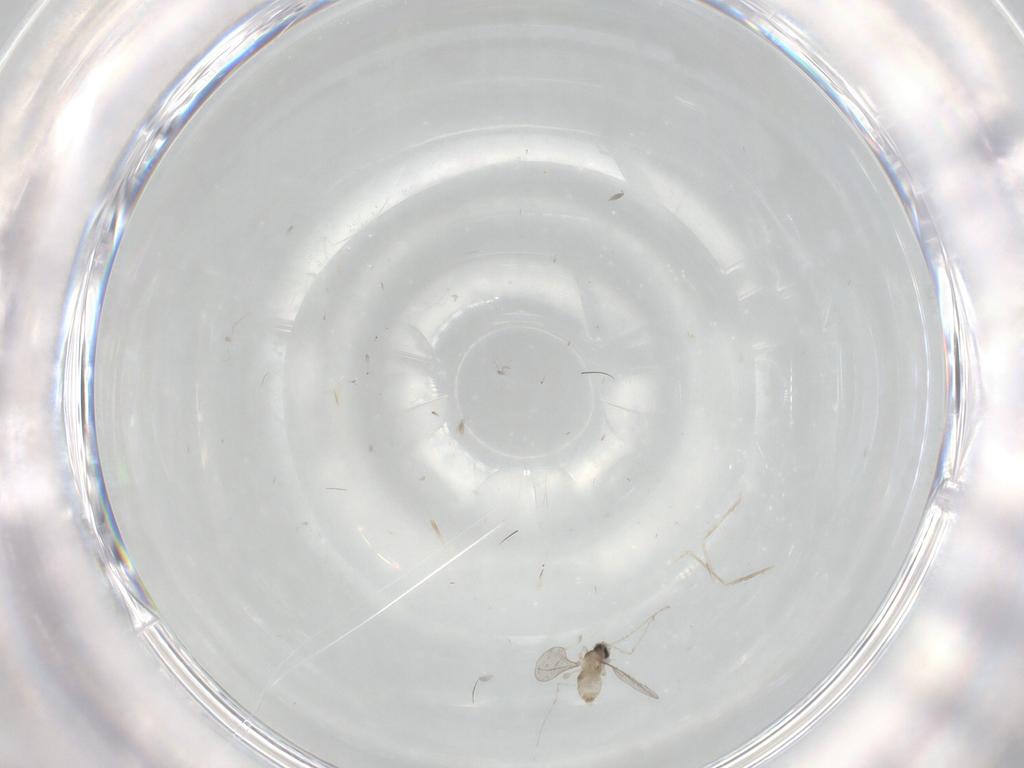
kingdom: Animalia
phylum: Arthropoda
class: Insecta
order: Diptera
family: Cecidomyiidae
